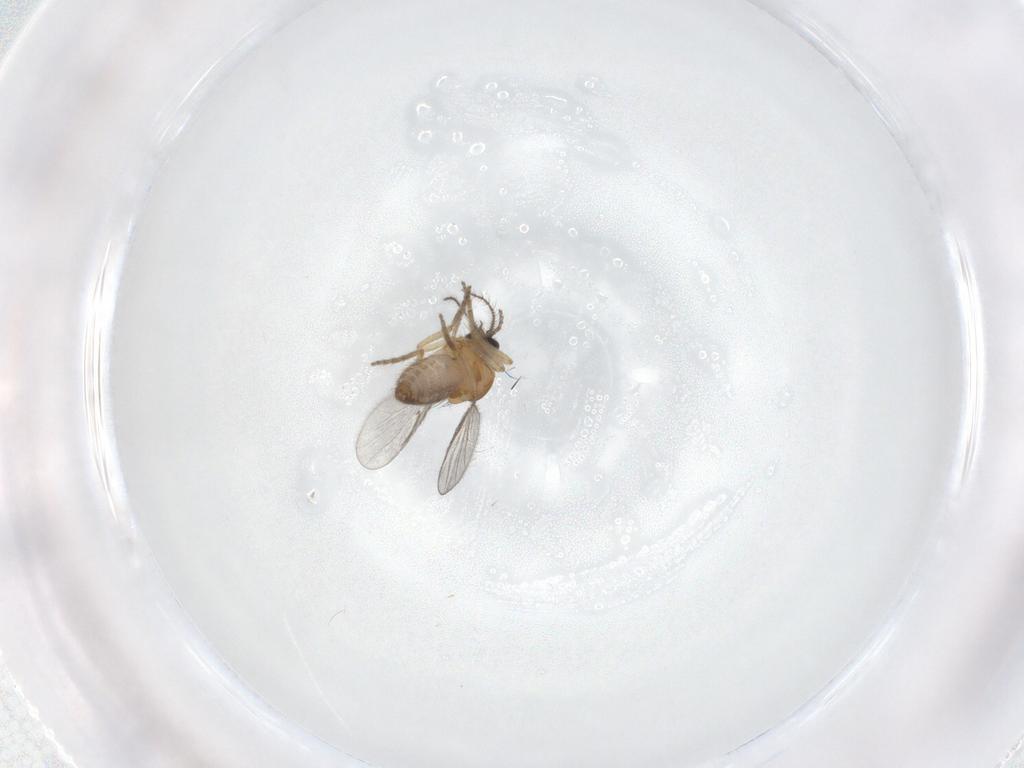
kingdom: Animalia
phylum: Arthropoda
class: Insecta
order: Diptera
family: Ceratopogonidae
